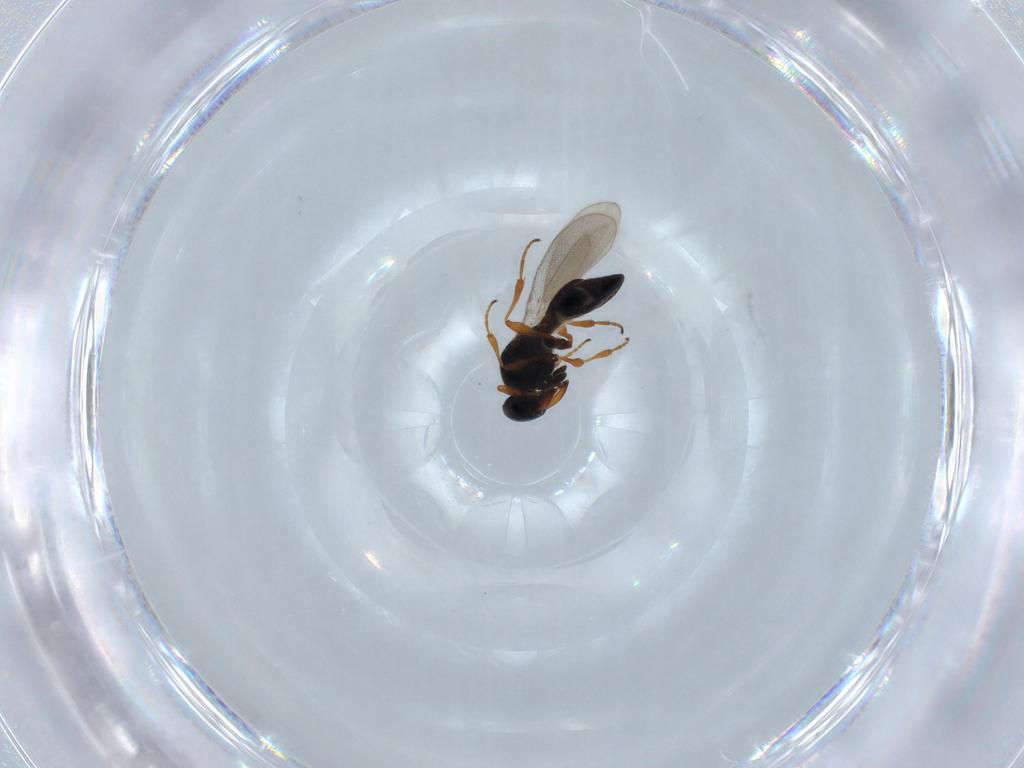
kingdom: Animalia
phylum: Arthropoda
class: Insecta
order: Hymenoptera
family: Platygastridae
